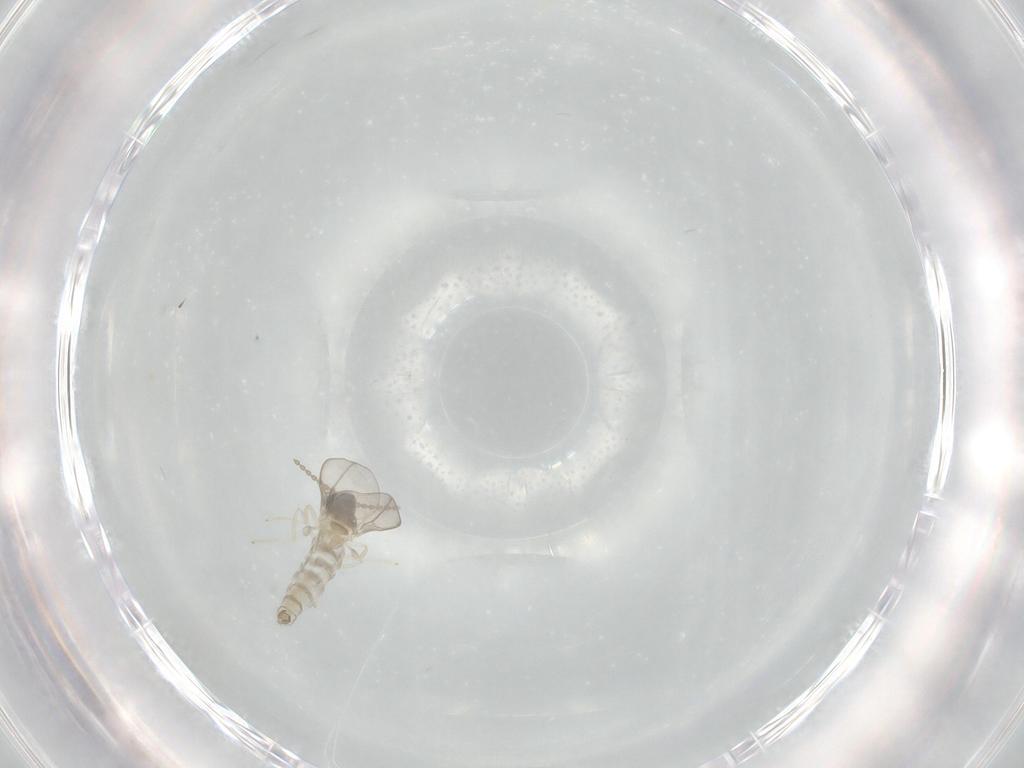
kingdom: Animalia
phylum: Arthropoda
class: Insecta
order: Diptera
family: Cecidomyiidae
